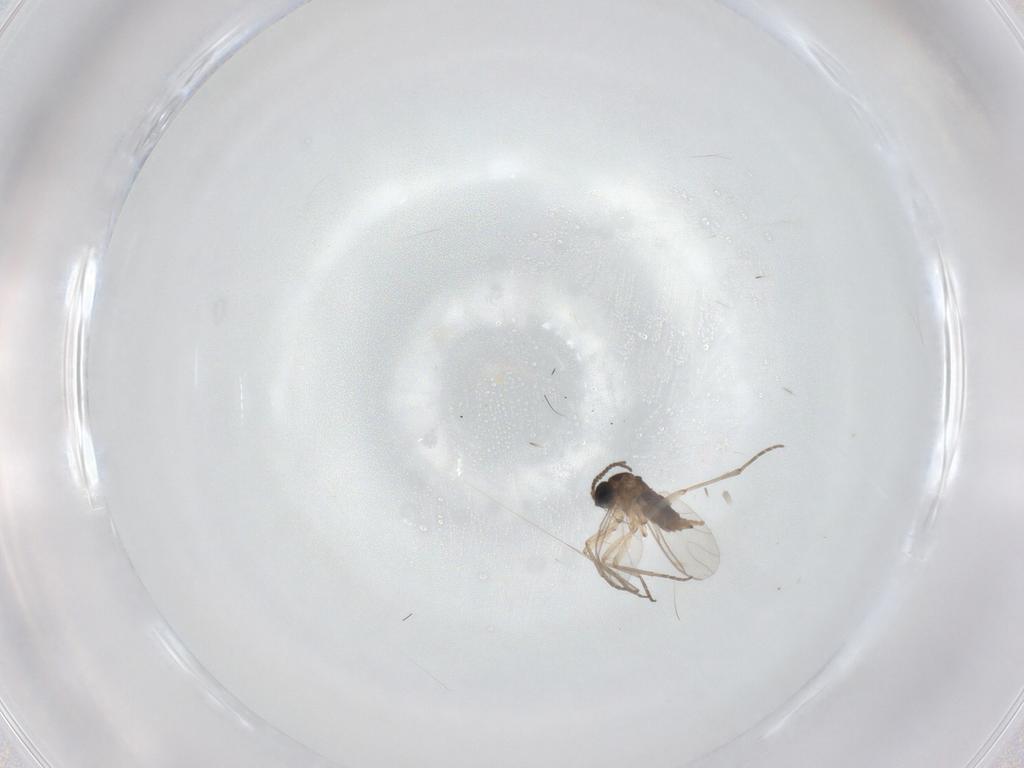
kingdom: Animalia
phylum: Arthropoda
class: Insecta
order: Diptera
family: Sciaridae
